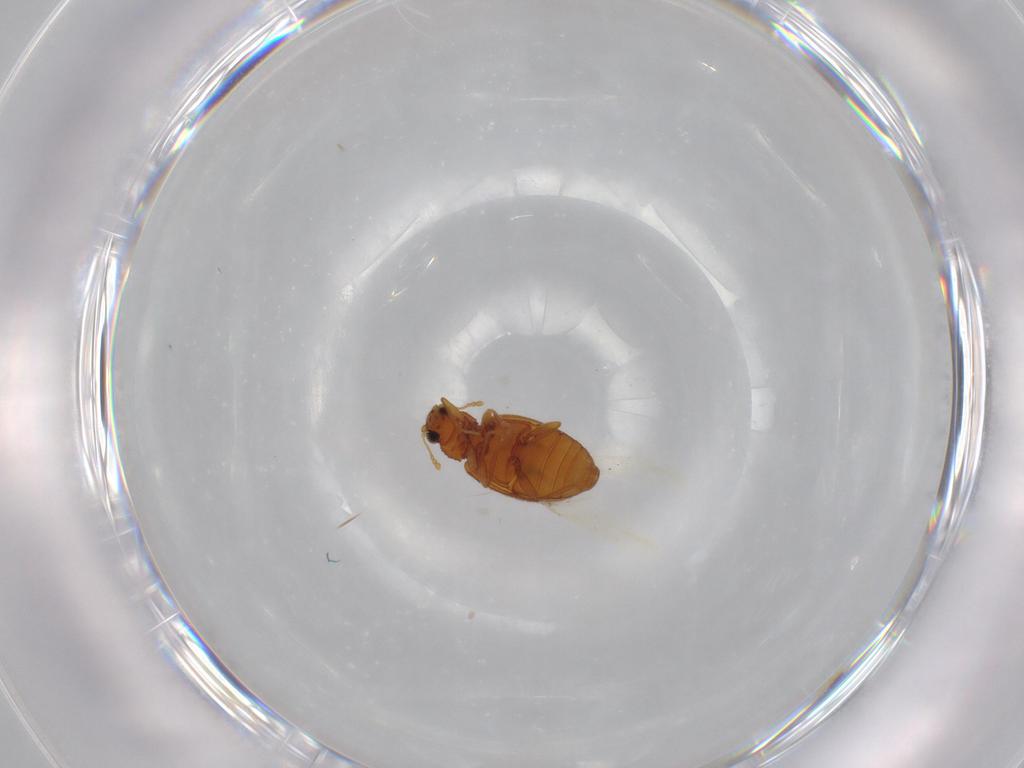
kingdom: Animalia
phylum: Arthropoda
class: Insecta
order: Coleoptera
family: Latridiidae
